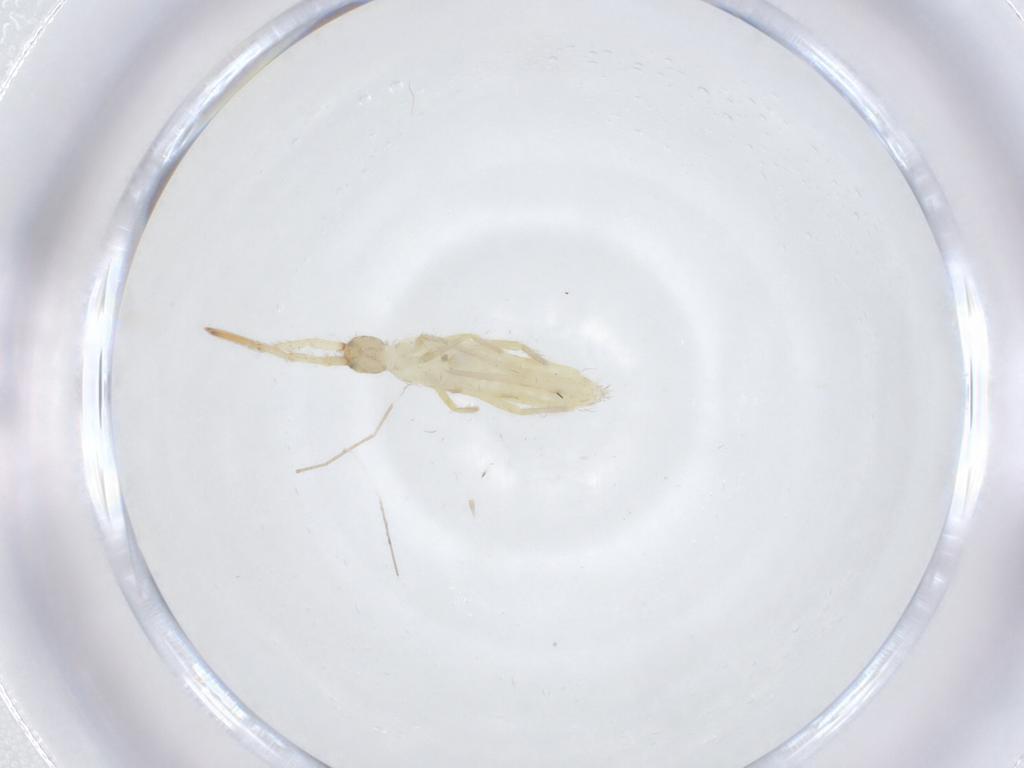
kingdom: Animalia
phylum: Arthropoda
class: Collembola
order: Entomobryomorpha
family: Entomobryidae
